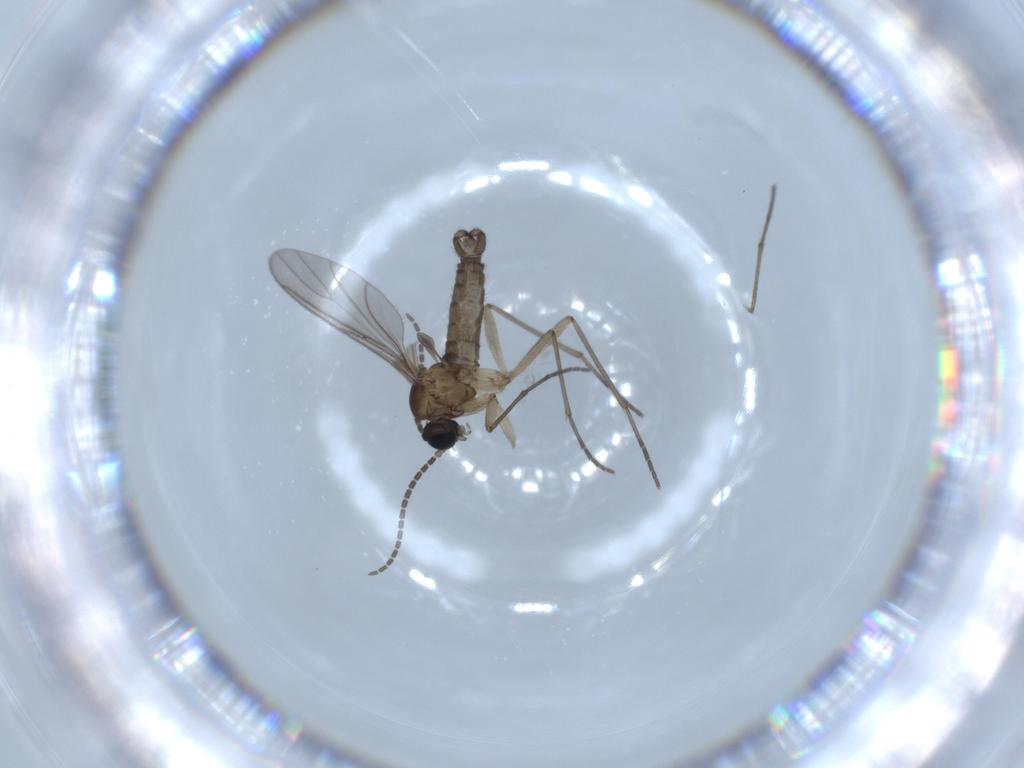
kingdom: Animalia
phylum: Arthropoda
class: Insecta
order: Diptera
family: Sciaridae
